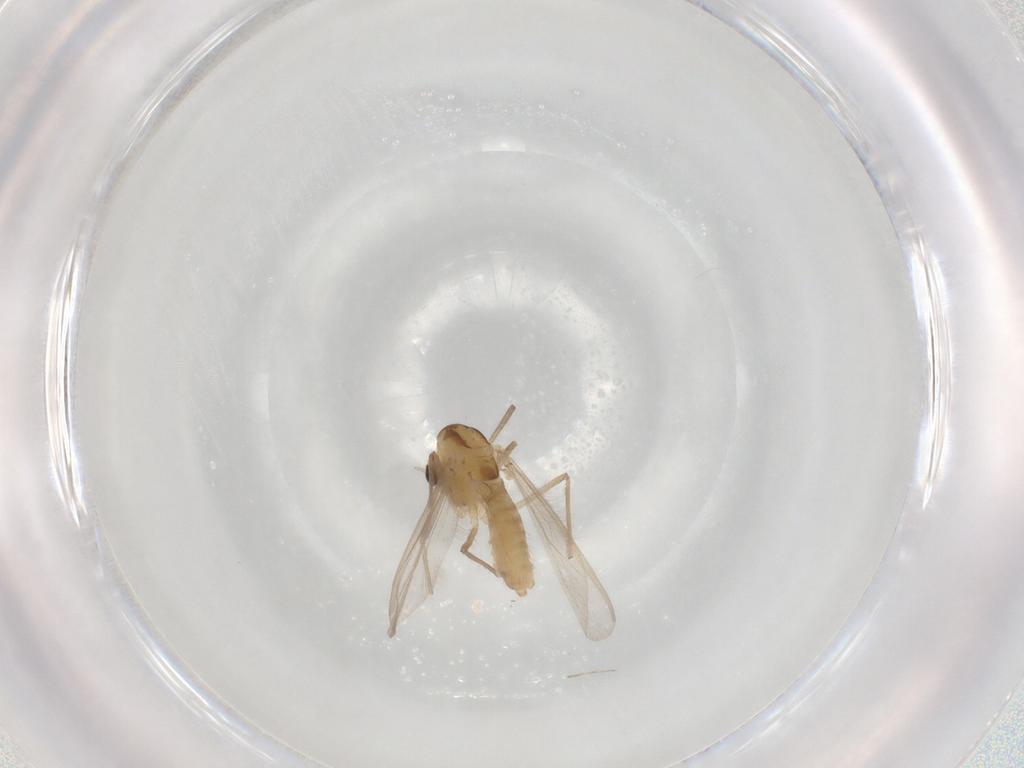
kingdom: Animalia
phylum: Arthropoda
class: Insecta
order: Diptera
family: Chironomidae
